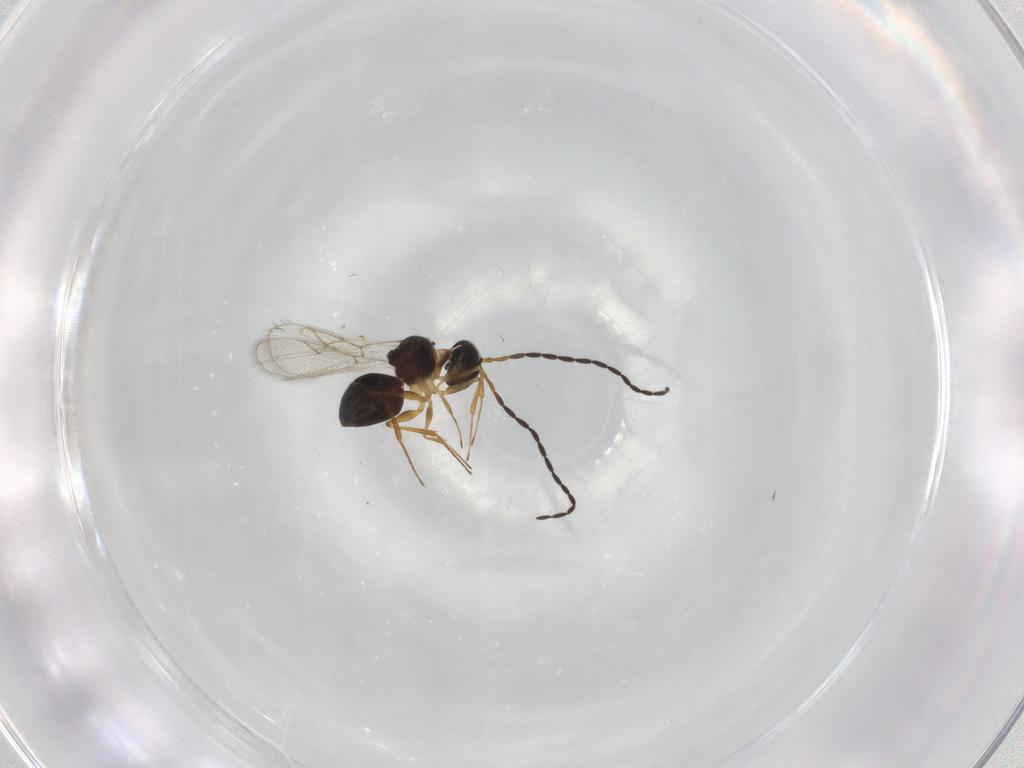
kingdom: Animalia
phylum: Arthropoda
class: Insecta
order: Hymenoptera
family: Figitidae
